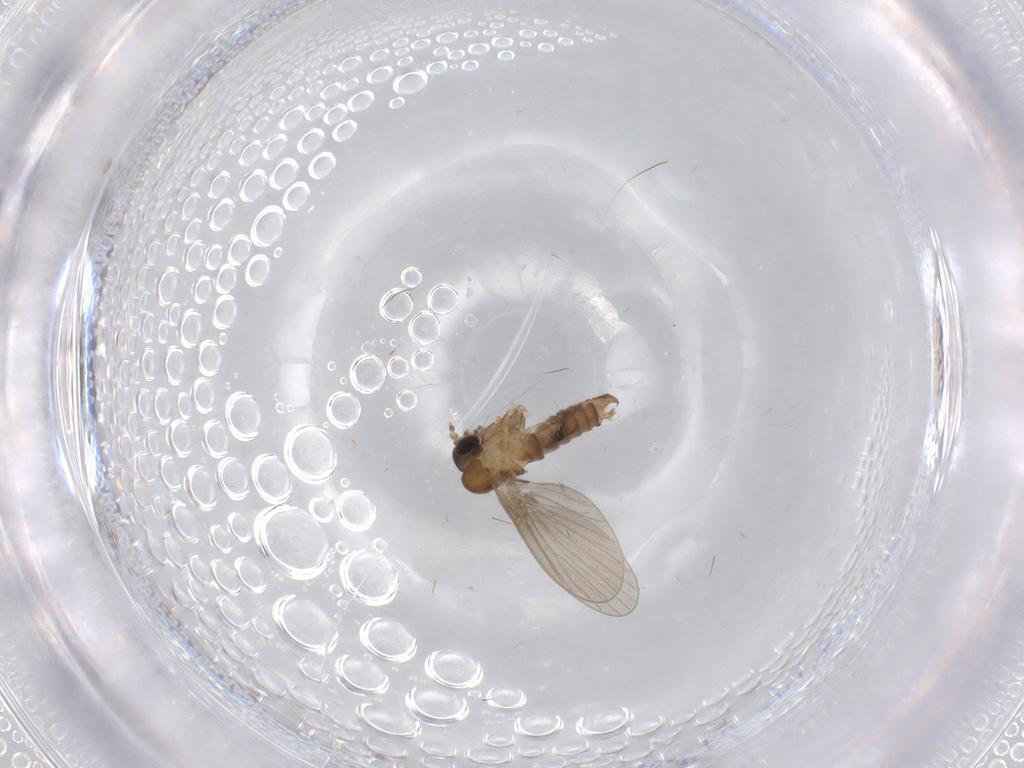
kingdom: Animalia
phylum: Arthropoda
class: Insecta
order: Diptera
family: Psychodidae
